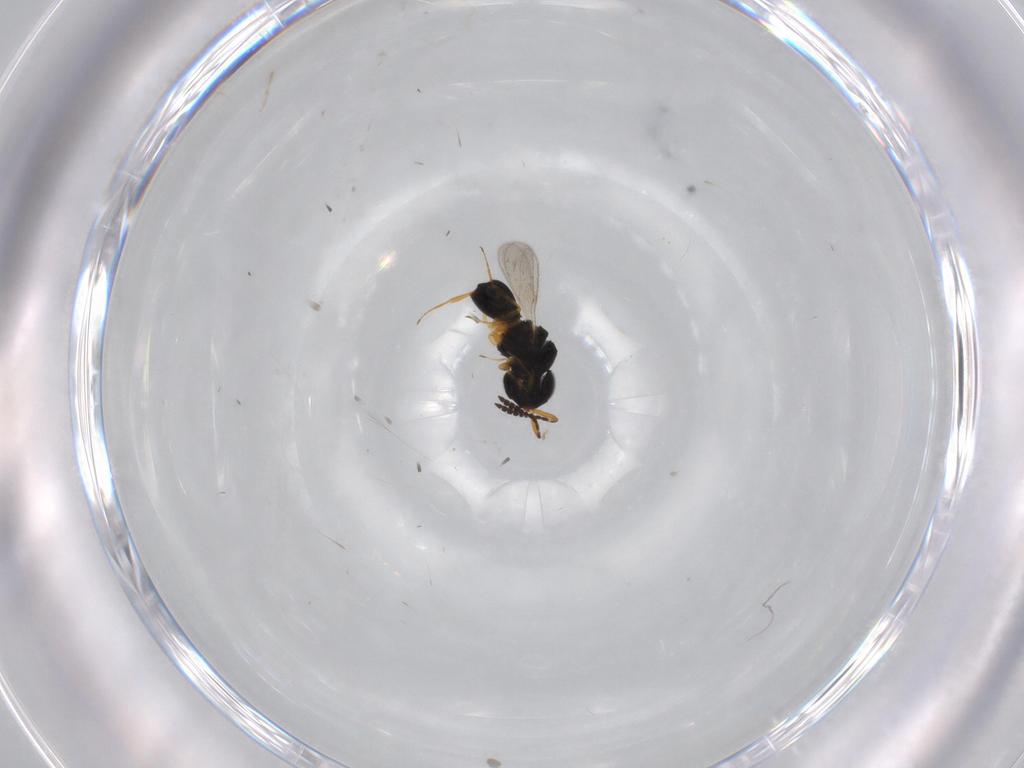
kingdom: Animalia
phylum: Arthropoda
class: Insecta
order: Hymenoptera
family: Scelionidae
